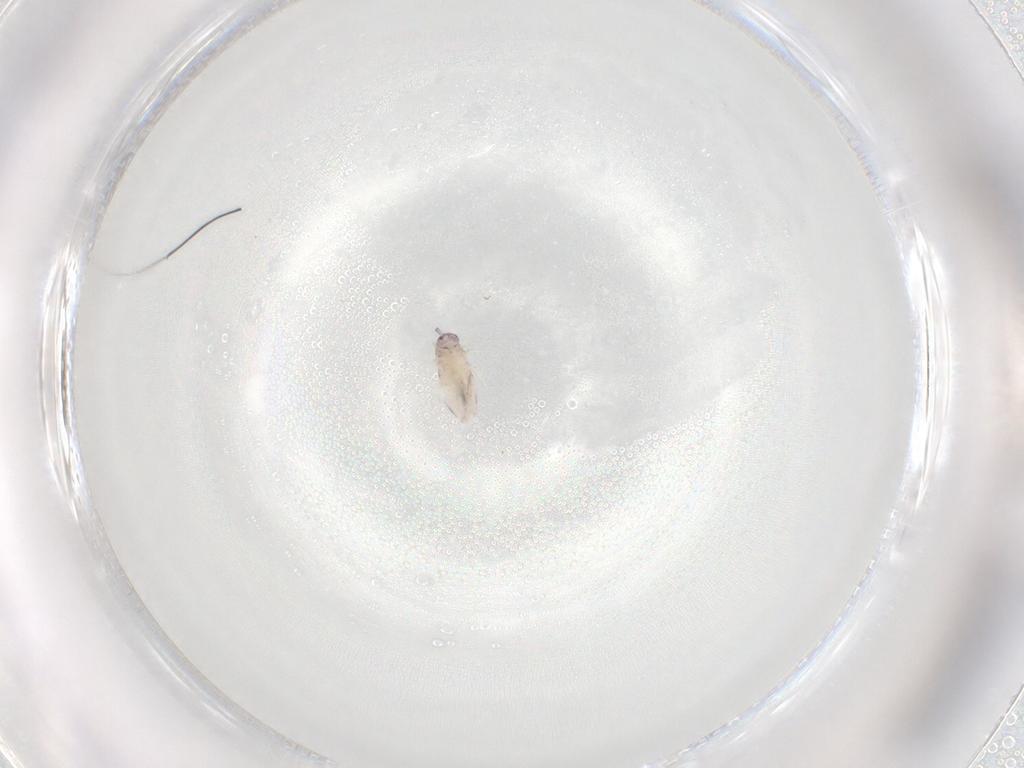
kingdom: Animalia
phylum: Arthropoda
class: Collembola
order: Entomobryomorpha
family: Entomobryidae
